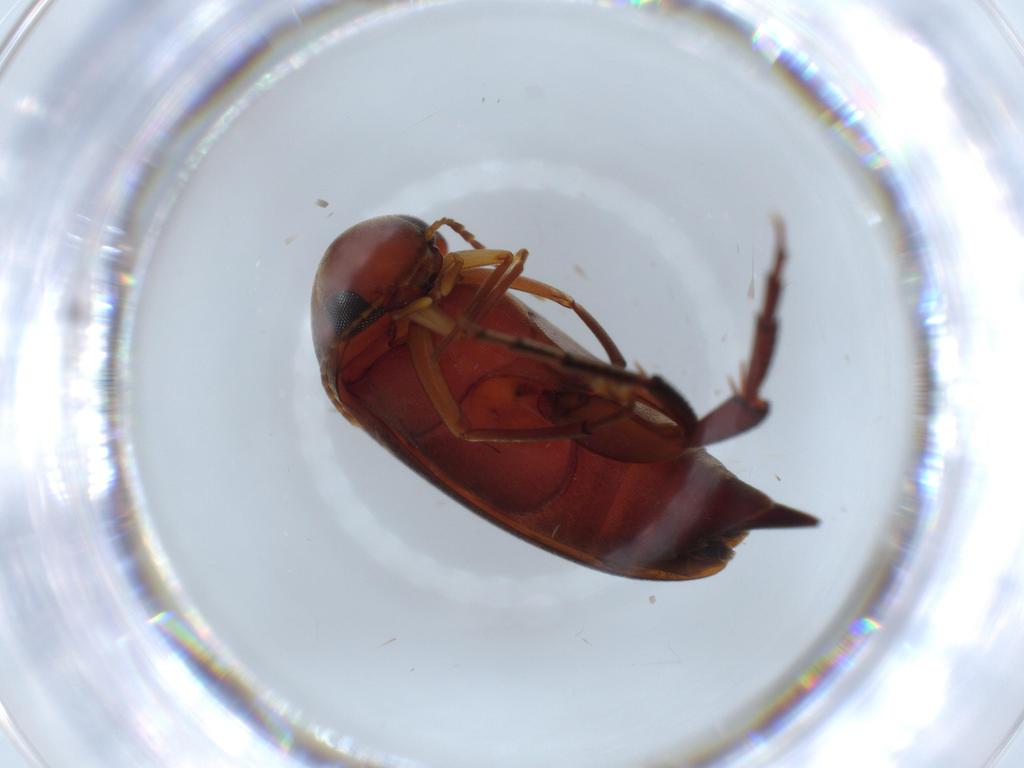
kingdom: Animalia
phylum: Arthropoda
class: Insecta
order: Coleoptera
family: Mordellidae
